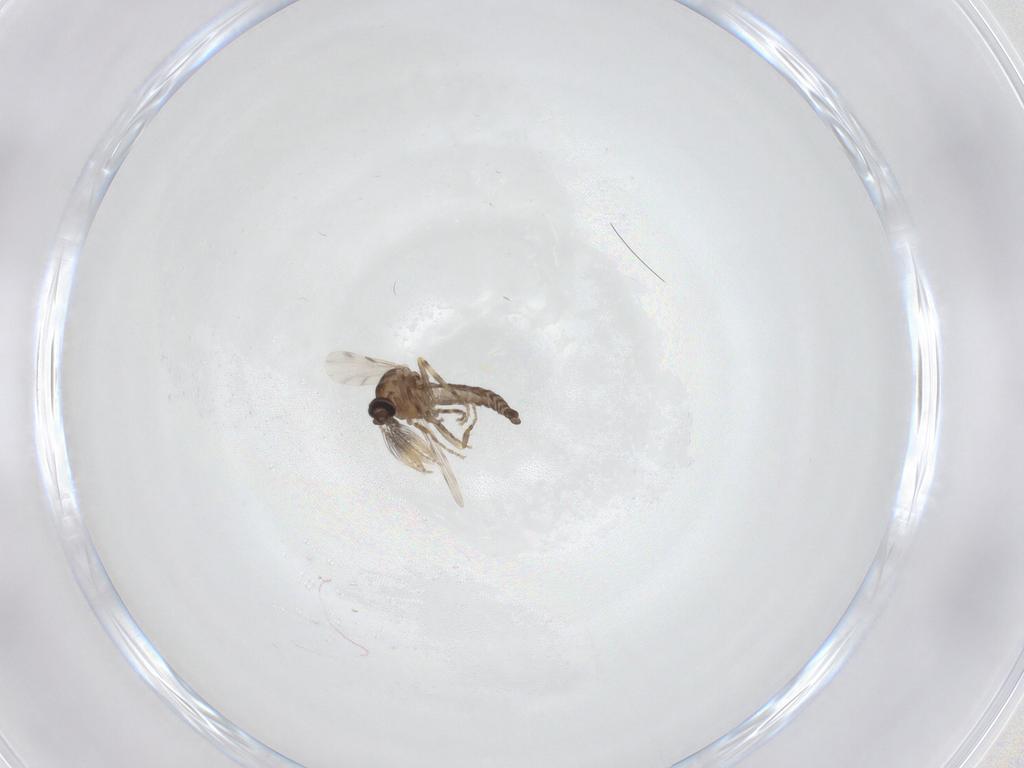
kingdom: Animalia
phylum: Arthropoda
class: Insecta
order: Diptera
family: Ceratopogonidae
